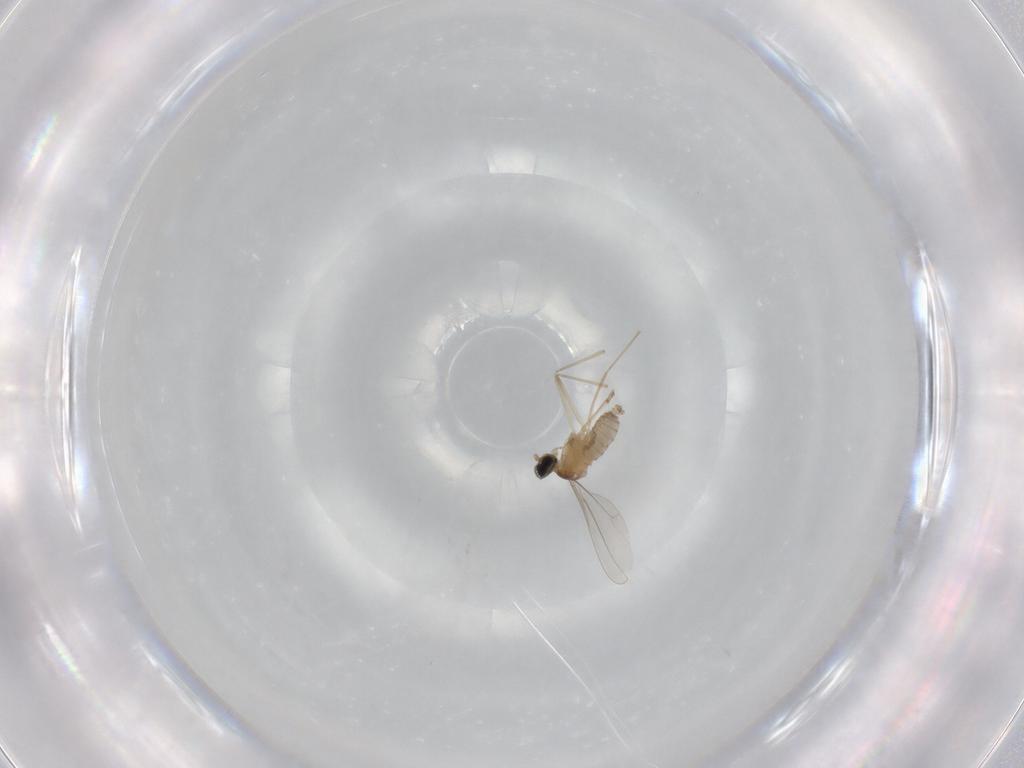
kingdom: Animalia
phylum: Arthropoda
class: Insecta
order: Diptera
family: Cecidomyiidae
